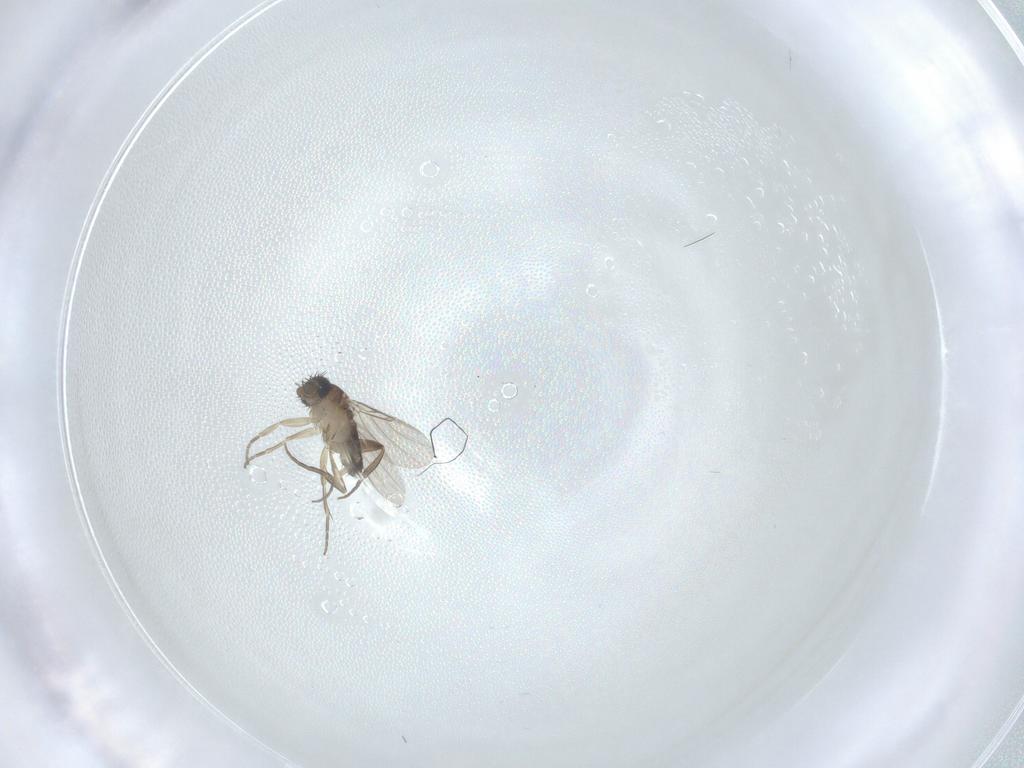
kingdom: Animalia
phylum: Arthropoda
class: Insecta
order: Diptera
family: Phoridae
